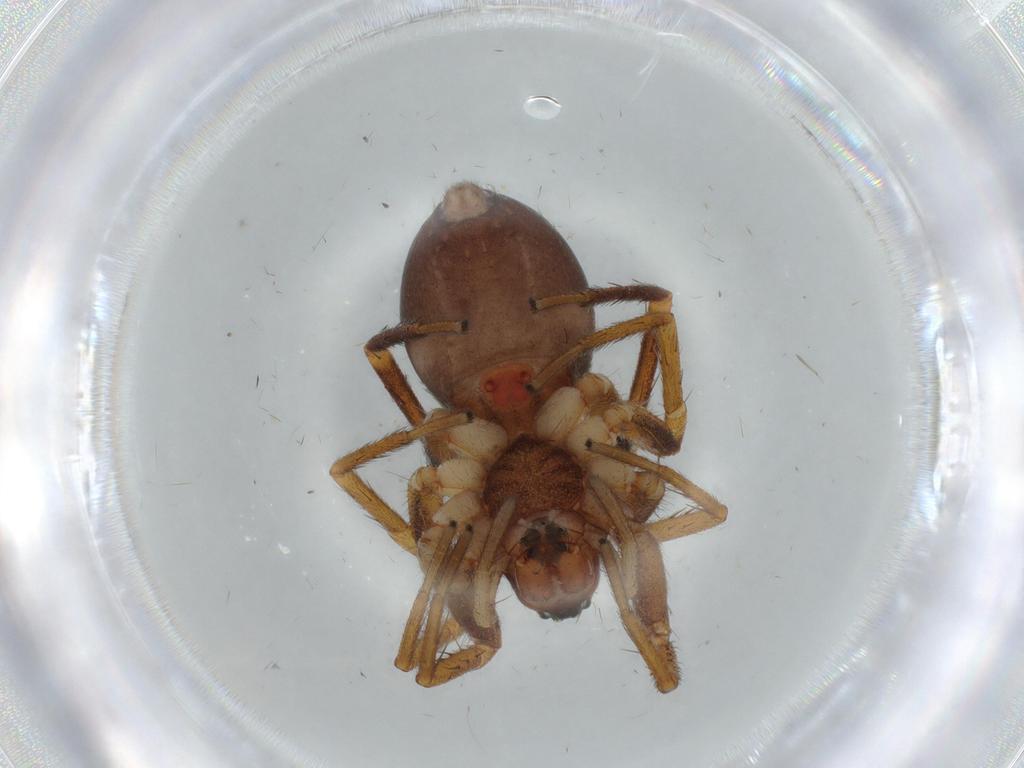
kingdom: Animalia
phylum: Arthropoda
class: Arachnida
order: Araneae
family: Corinnidae
